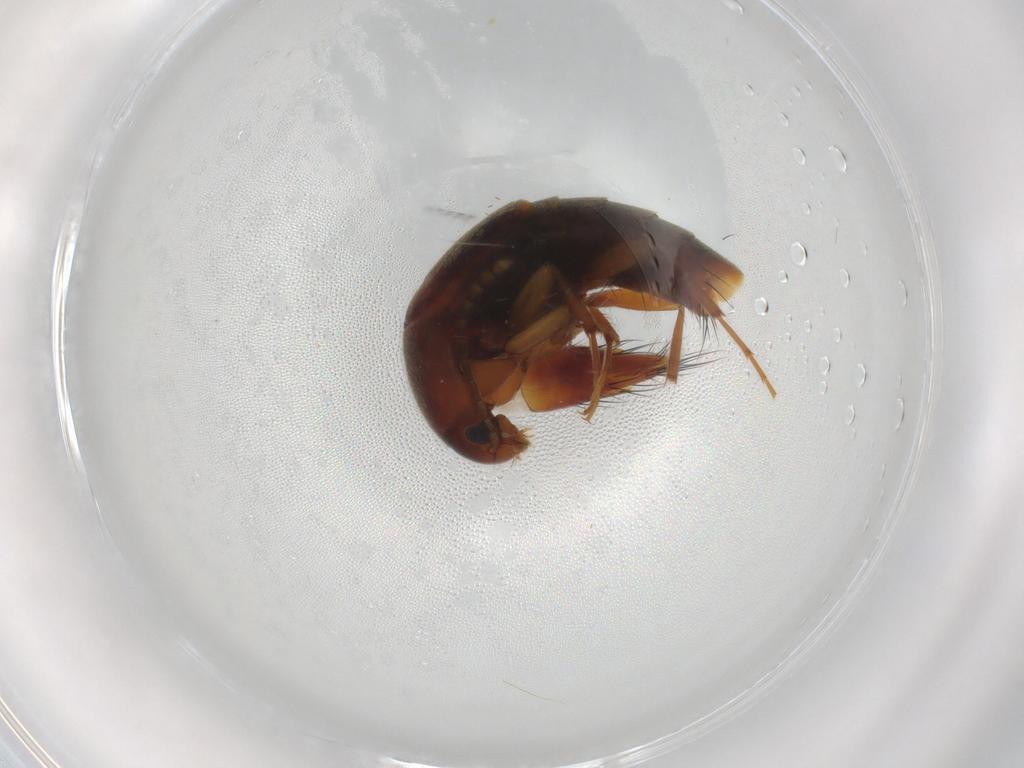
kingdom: Animalia
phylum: Arthropoda
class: Insecta
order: Coleoptera
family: Staphylinidae
